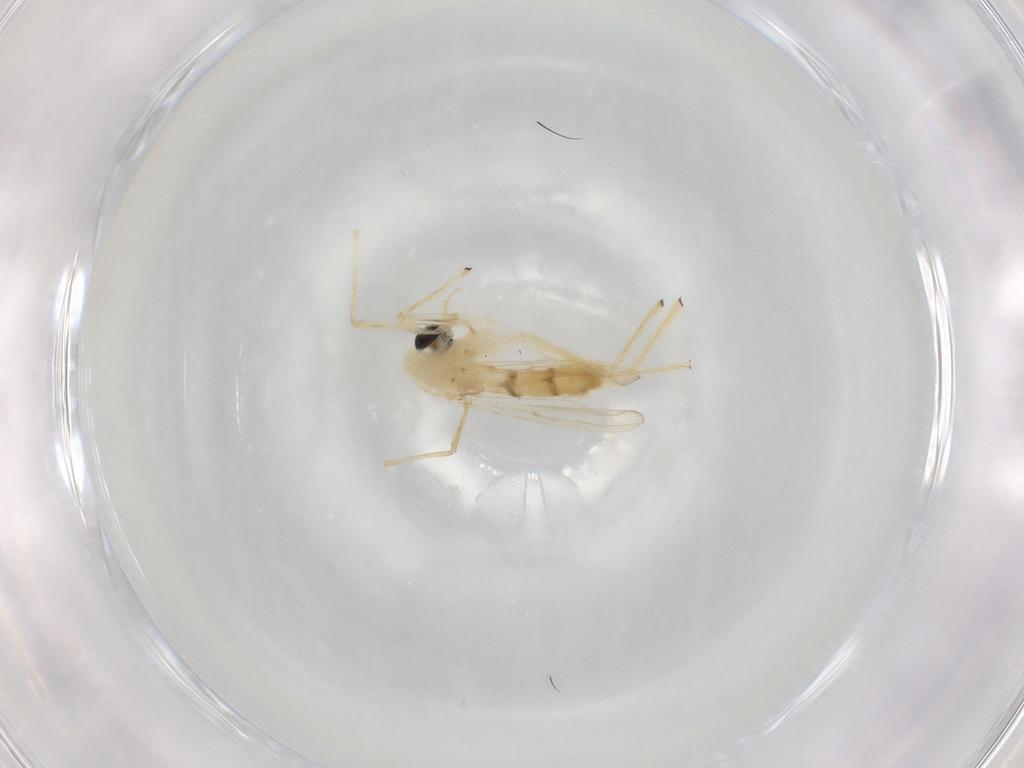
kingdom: Animalia
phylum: Arthropoda
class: Insecta
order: Diptera
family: Chironomidae
